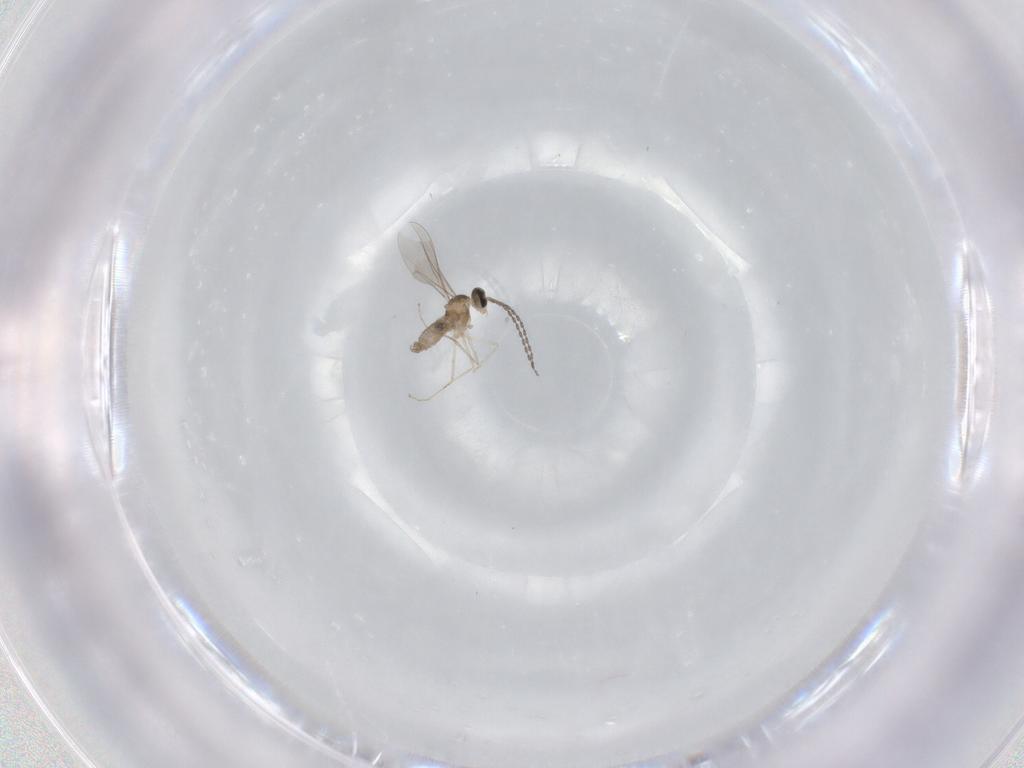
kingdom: Animalia
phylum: Arthropoda
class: Insecta
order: Diptera
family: Cecidomyiidae
